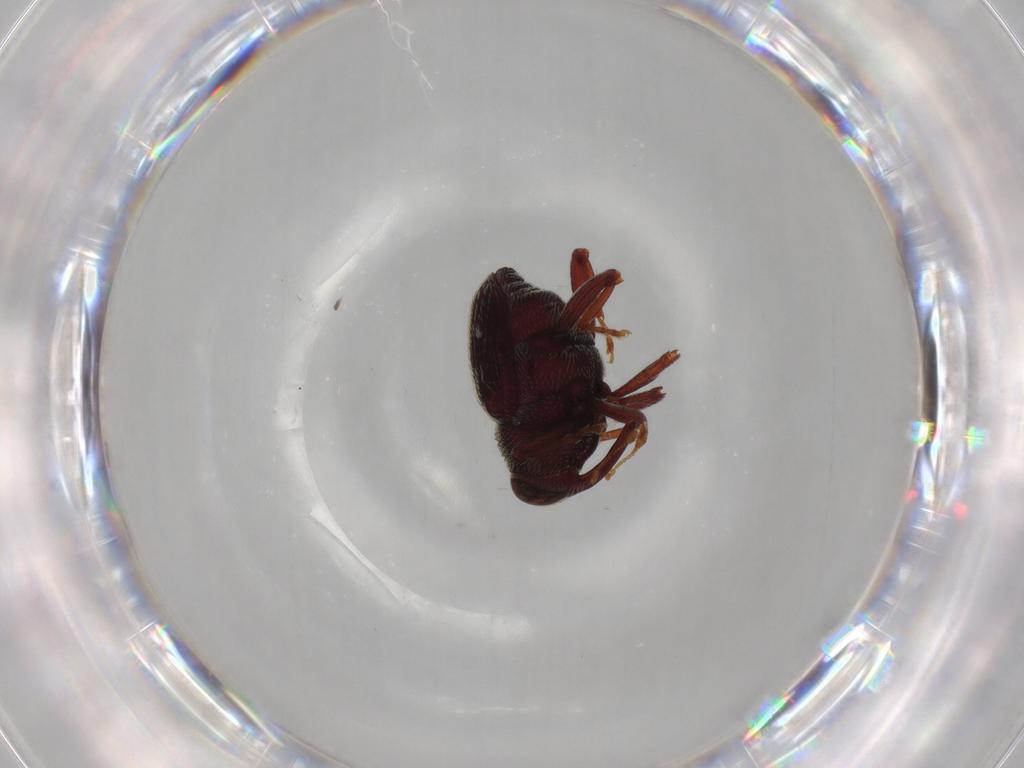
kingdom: Animalia
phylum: Arthropoda
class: Insecta
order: Coleoptera
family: Curculionidae
